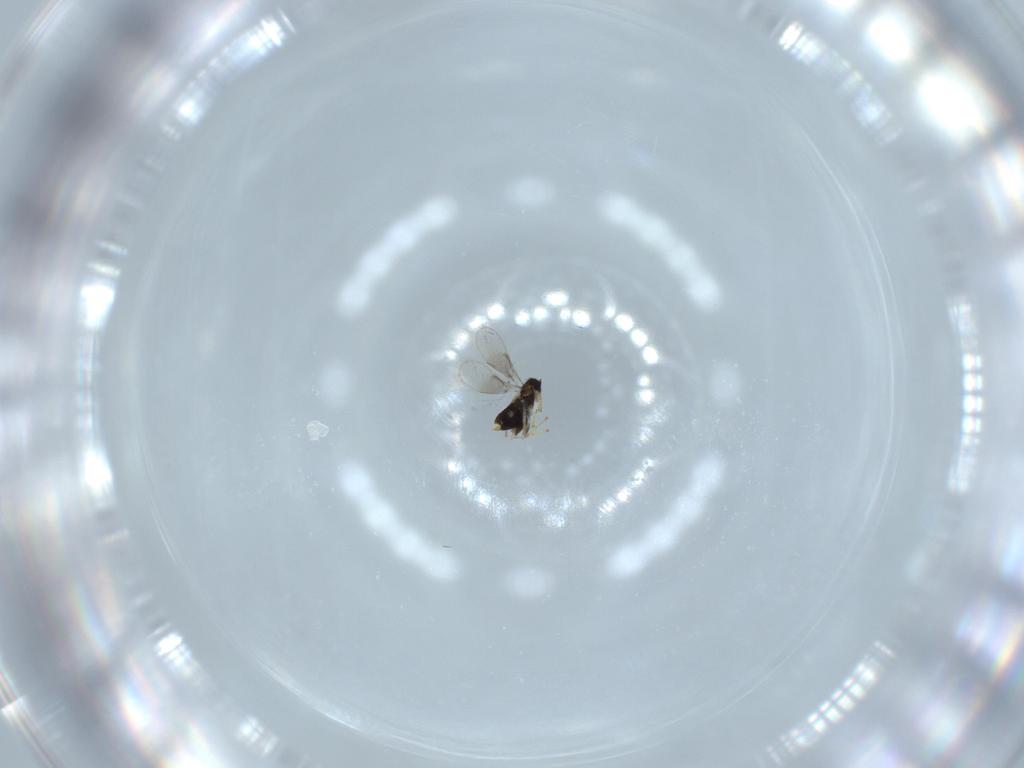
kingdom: Animalia
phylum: Arthropoda
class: Insecta
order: Hymenoptera
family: Aphelinidae
